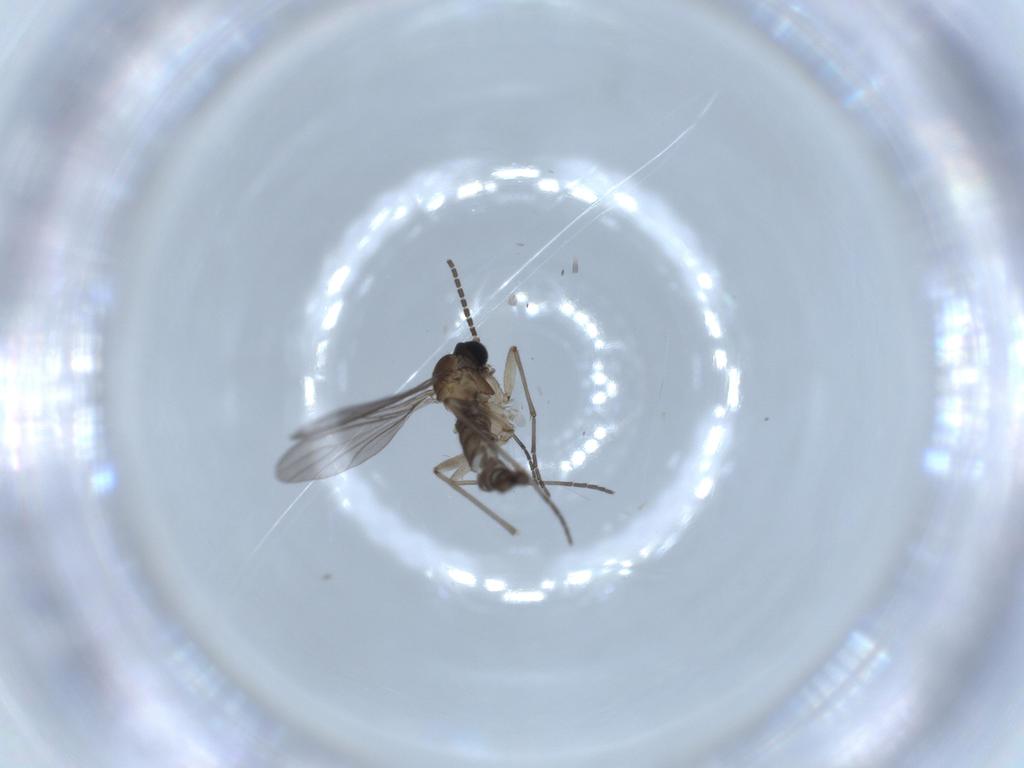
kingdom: Animalia
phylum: Arthropoda
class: Insecta
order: Diptera
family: Sciaridae
